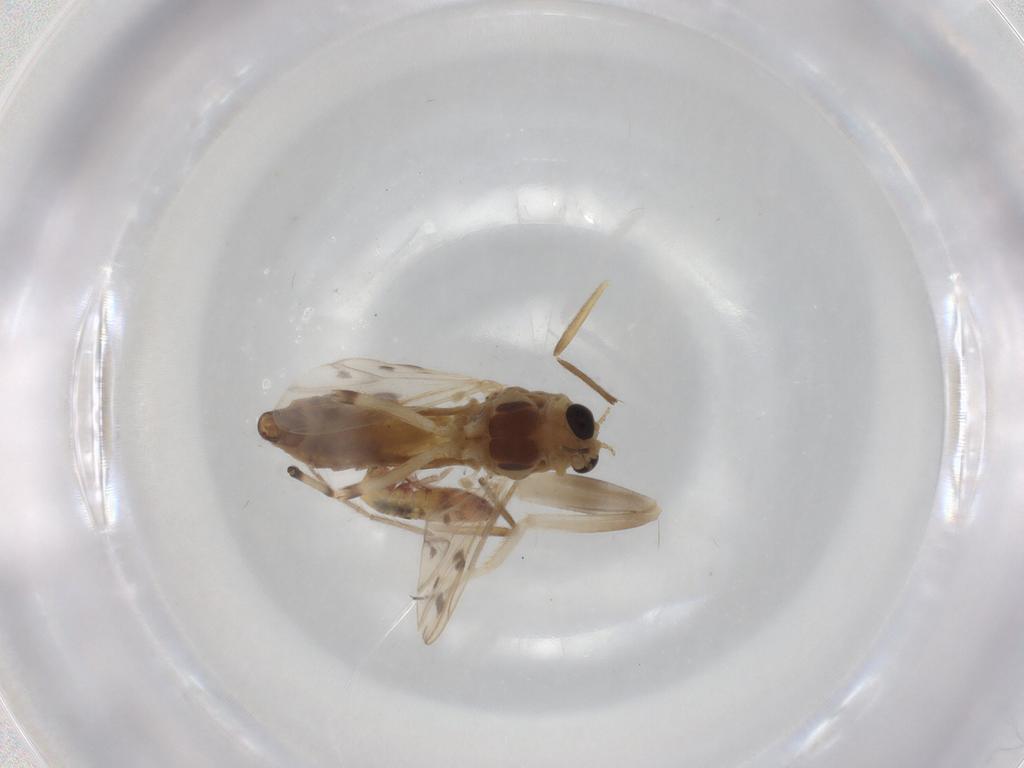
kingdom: Animalia
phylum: Arthropoda
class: Insecta
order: Diptera
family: Chironomidae
